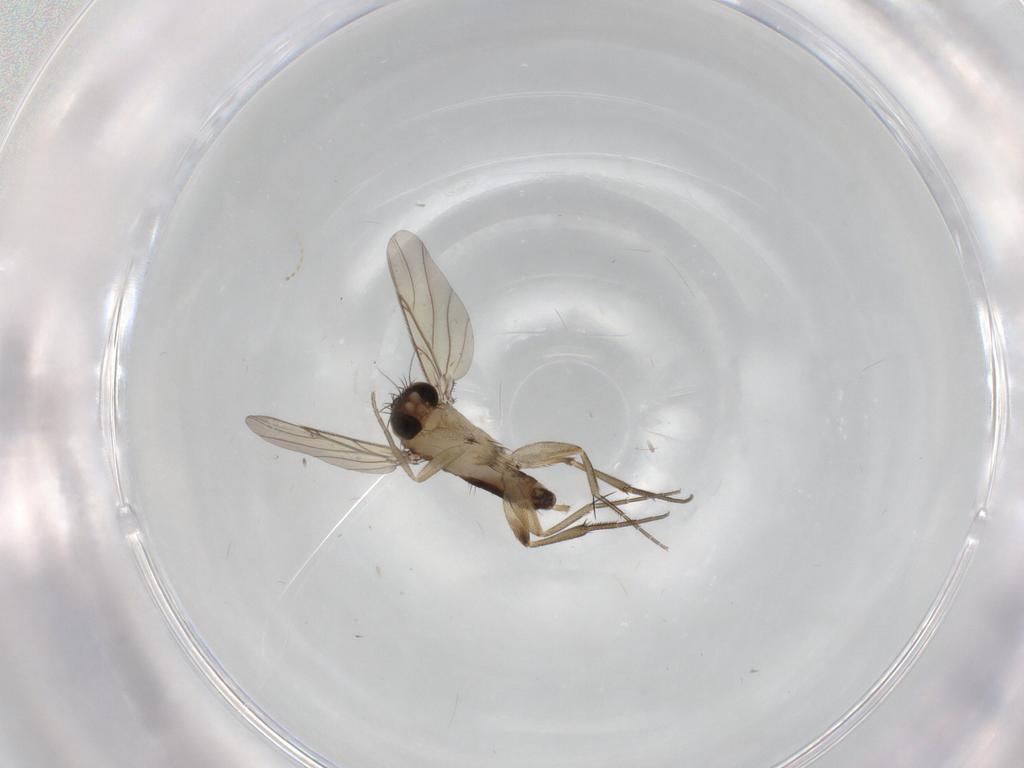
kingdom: Animalia
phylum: Arthropoda
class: Insecta
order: Diptera
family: Phoridae
